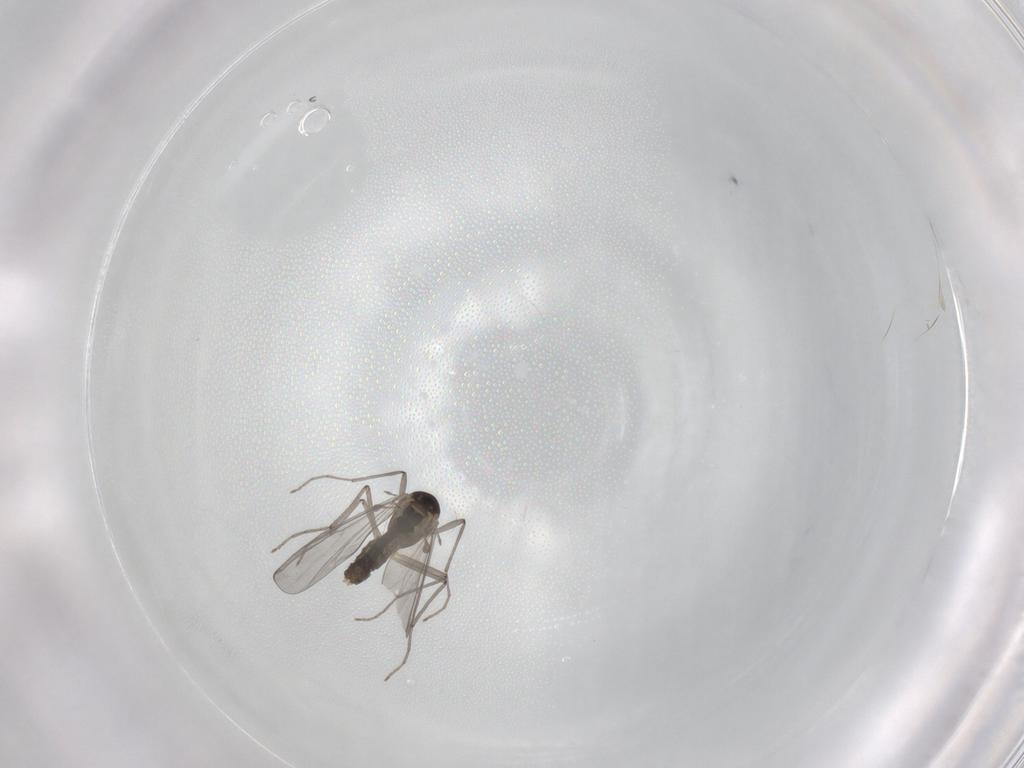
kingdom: Animalia
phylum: Arthropoda
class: Insecta
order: Diptera
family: Chironomidae
